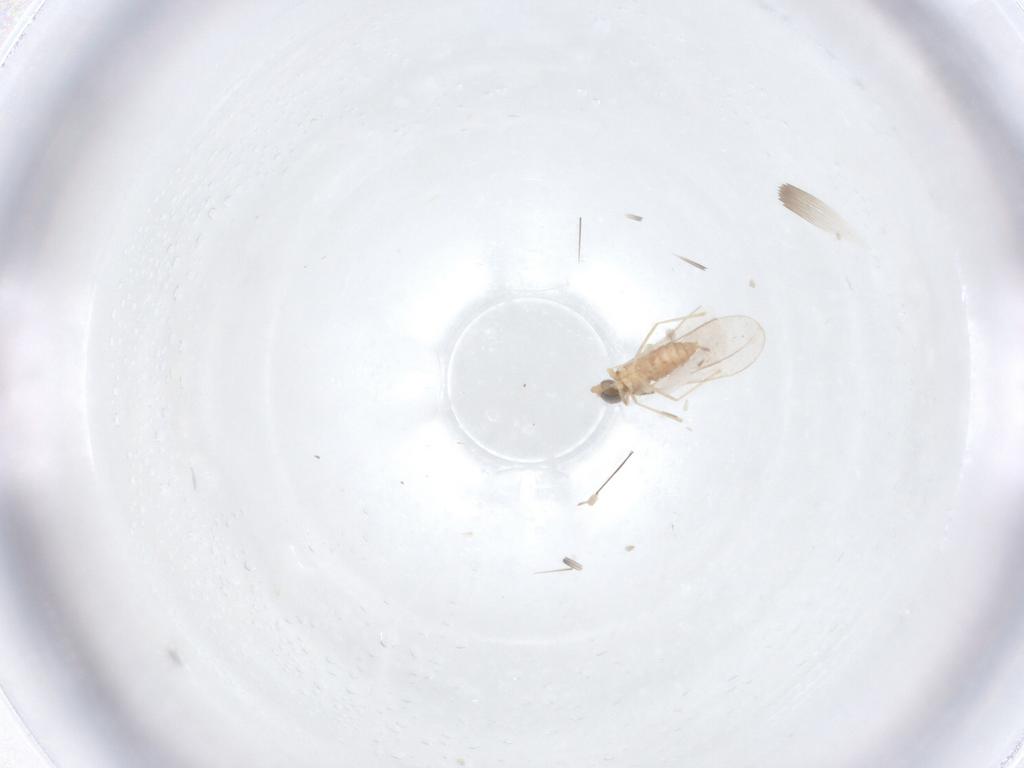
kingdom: Animalia
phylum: Arthropoda
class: Insecta
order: Diptera
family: Cecidomyiidae
